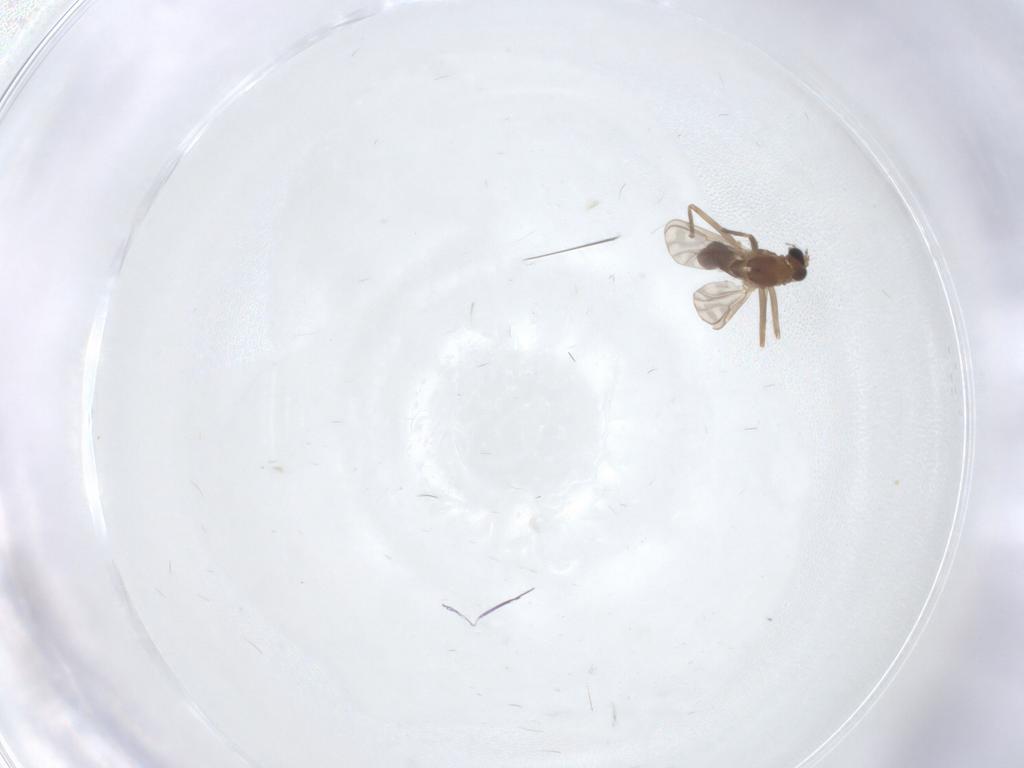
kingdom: Animalia
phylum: Arthropoda
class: Insecta
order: Diptera
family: Chironomidae
